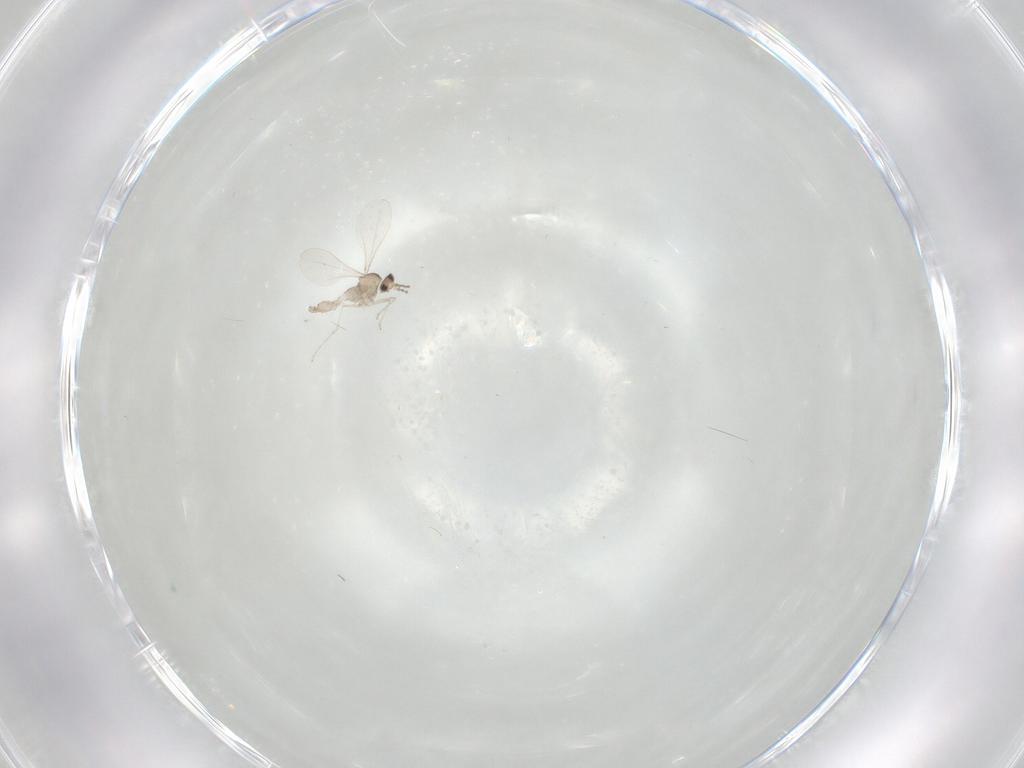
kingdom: Animalia
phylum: Arthropoda
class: Insecta
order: Diptera
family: Cecidomyiidae
